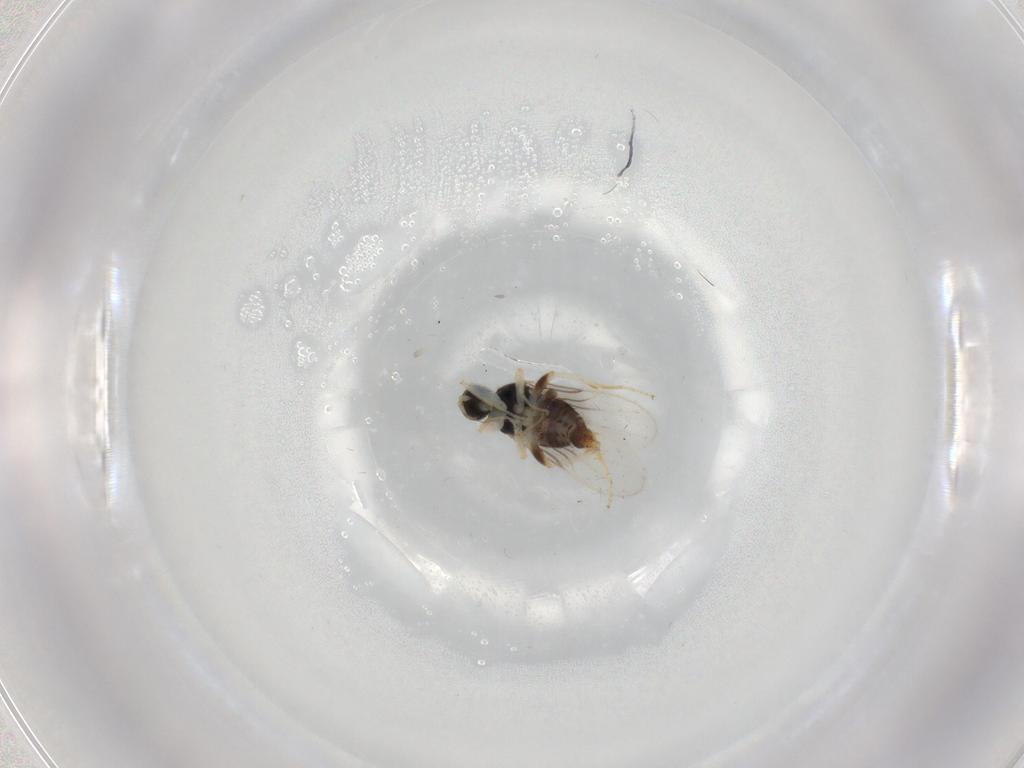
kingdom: Animalia
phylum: Arthropoda
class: Insecta
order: Diptera
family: Hybotidae
